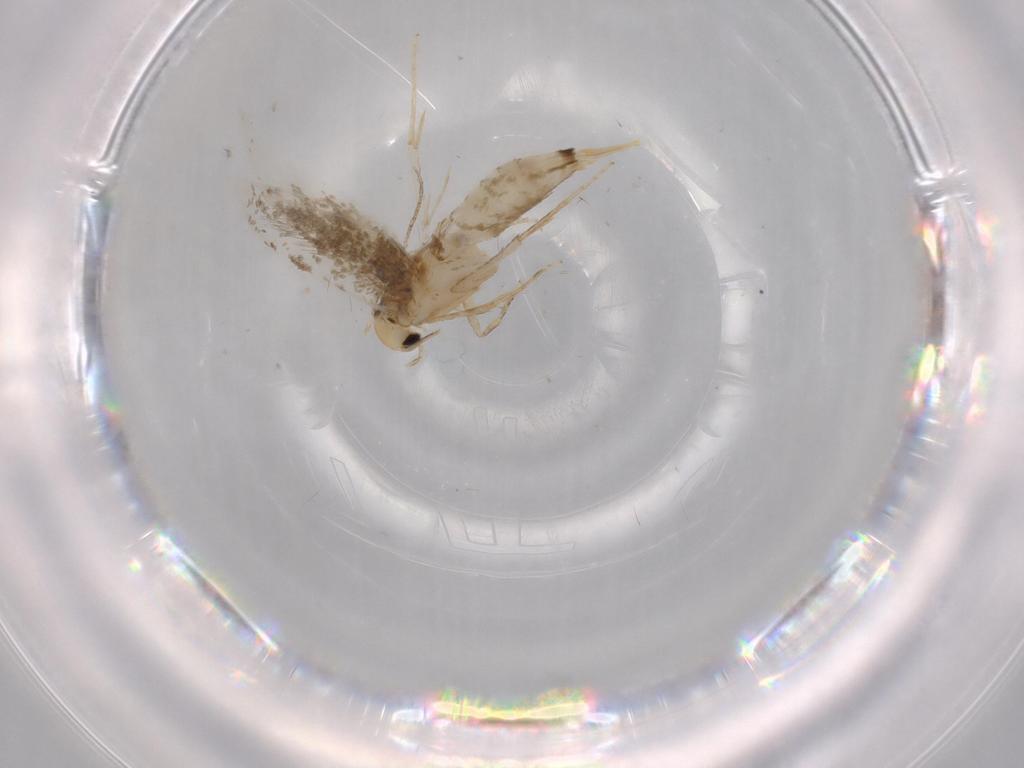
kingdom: Animalia
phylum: Arthropoda
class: Insecta
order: Lepidoptera
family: Tineidae
